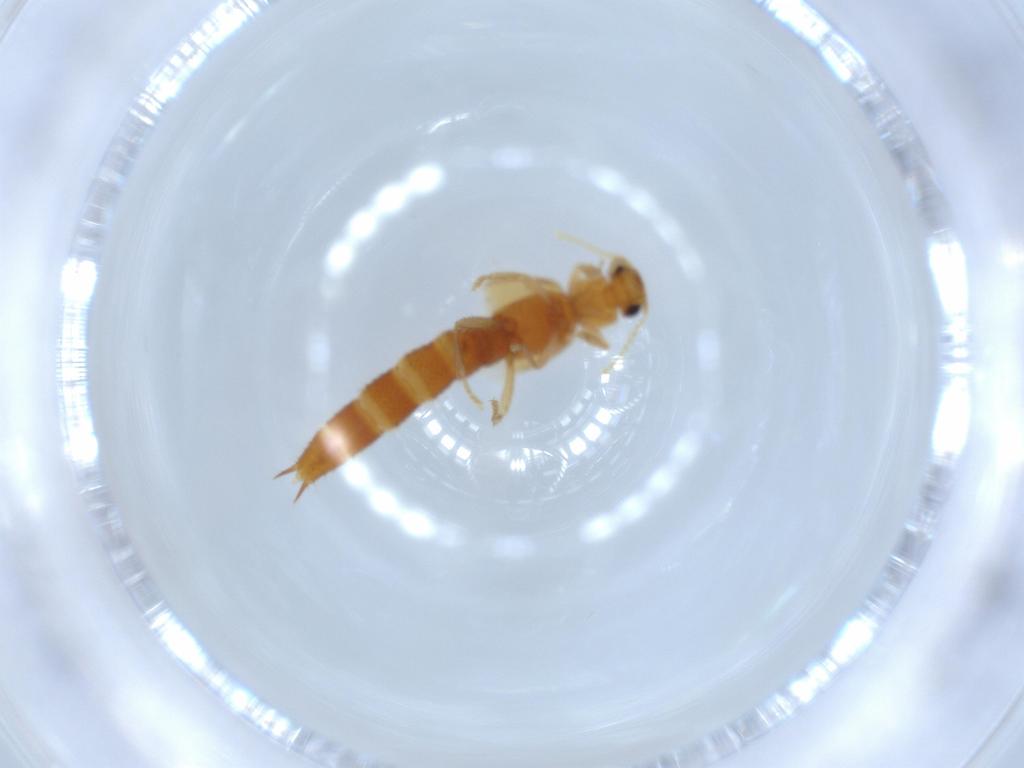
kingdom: Animalia
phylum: Arthropoda
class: Insecta
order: Coleoptera
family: Staphylinidae
